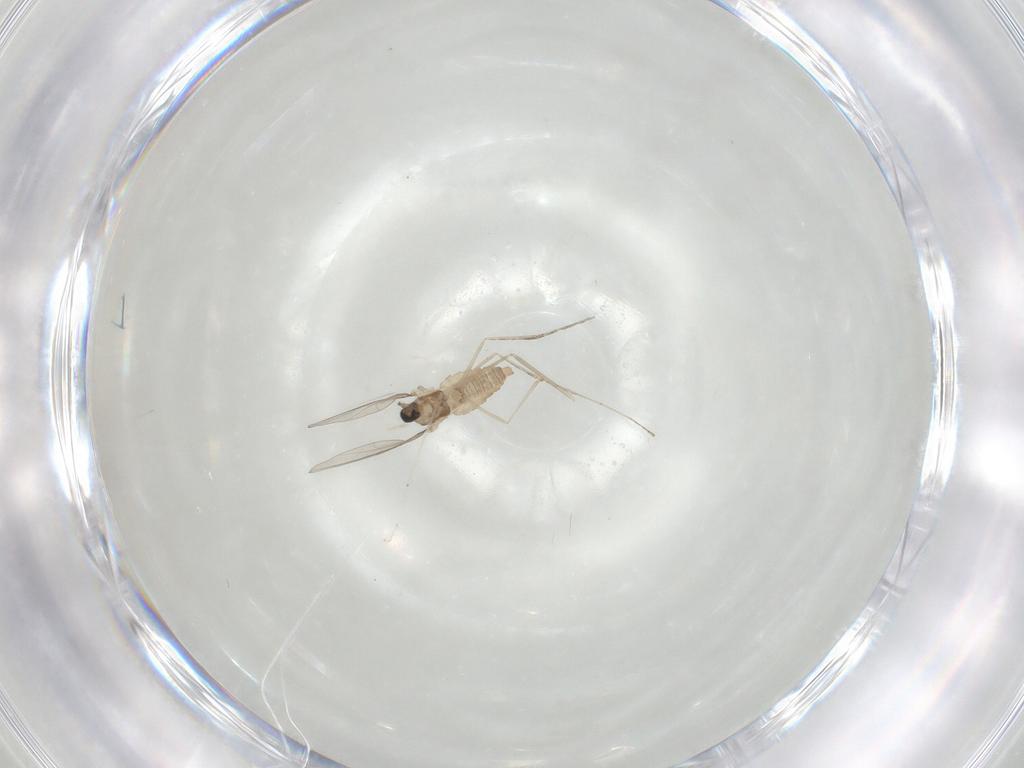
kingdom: Animalia
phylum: Arthropoda
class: Insecta
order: Diptera
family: Cecidomyiidae
